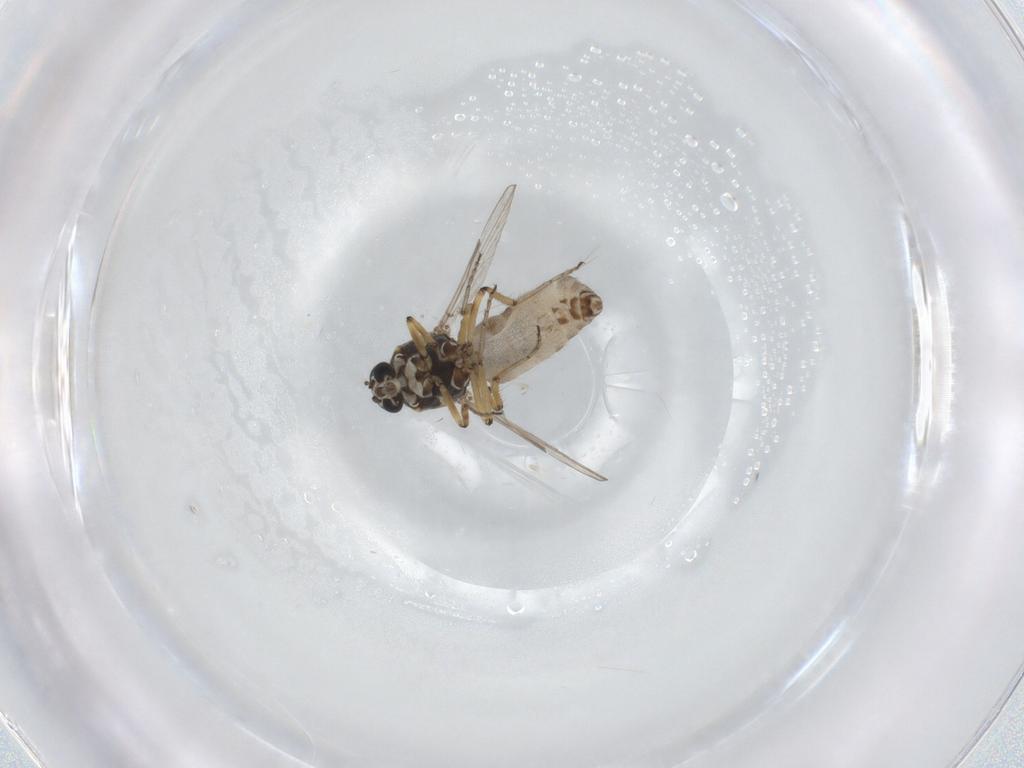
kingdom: Animalia
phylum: Arthropoda
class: Insecta
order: Diptera
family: Ceratopogonidae
